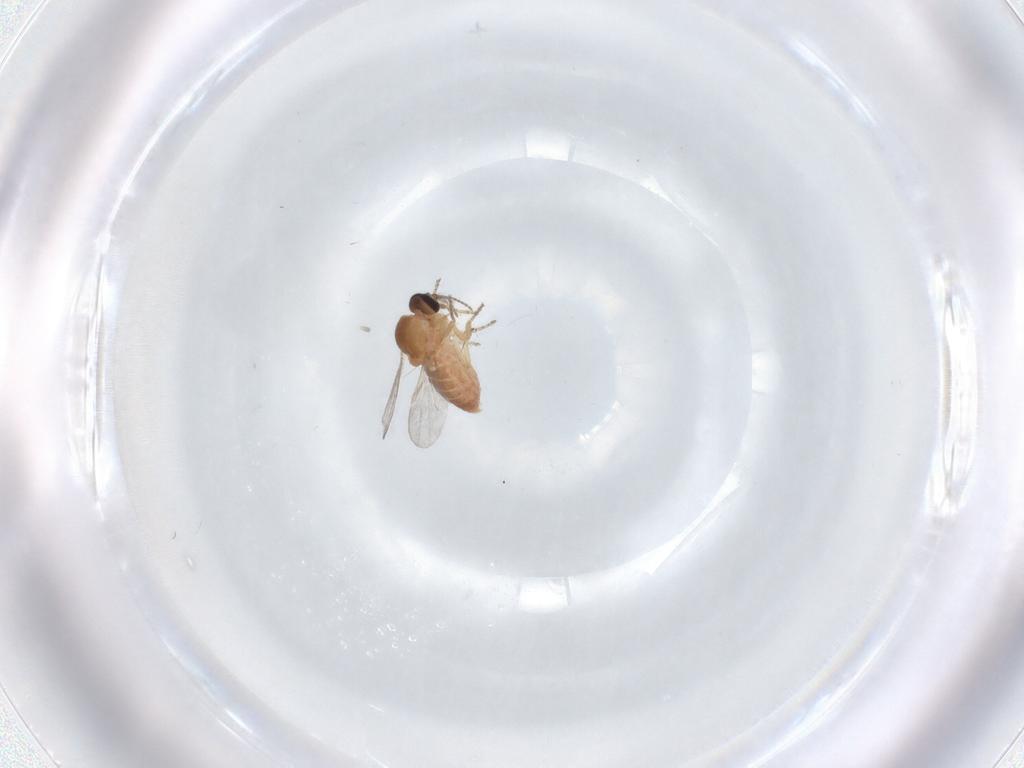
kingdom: Animalia
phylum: Arthropoda
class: Insecta
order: Diptera
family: Ceratopogonidae
